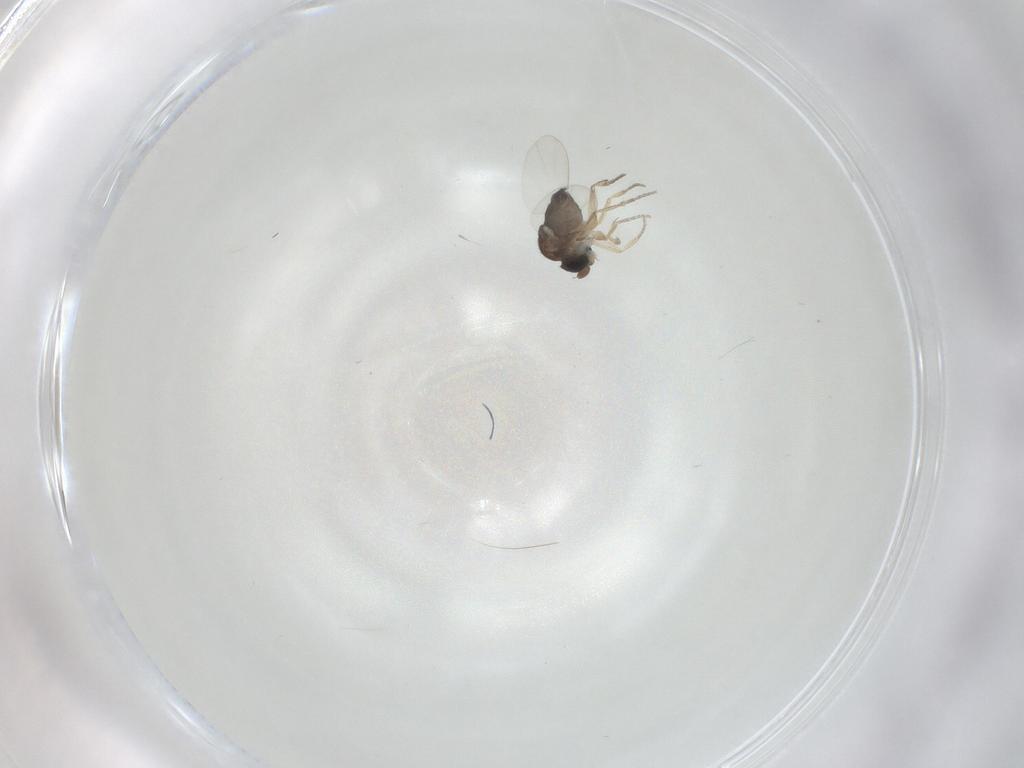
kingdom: Animalia
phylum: Arthropoda
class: Insecta
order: Diptera
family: Phoridae
